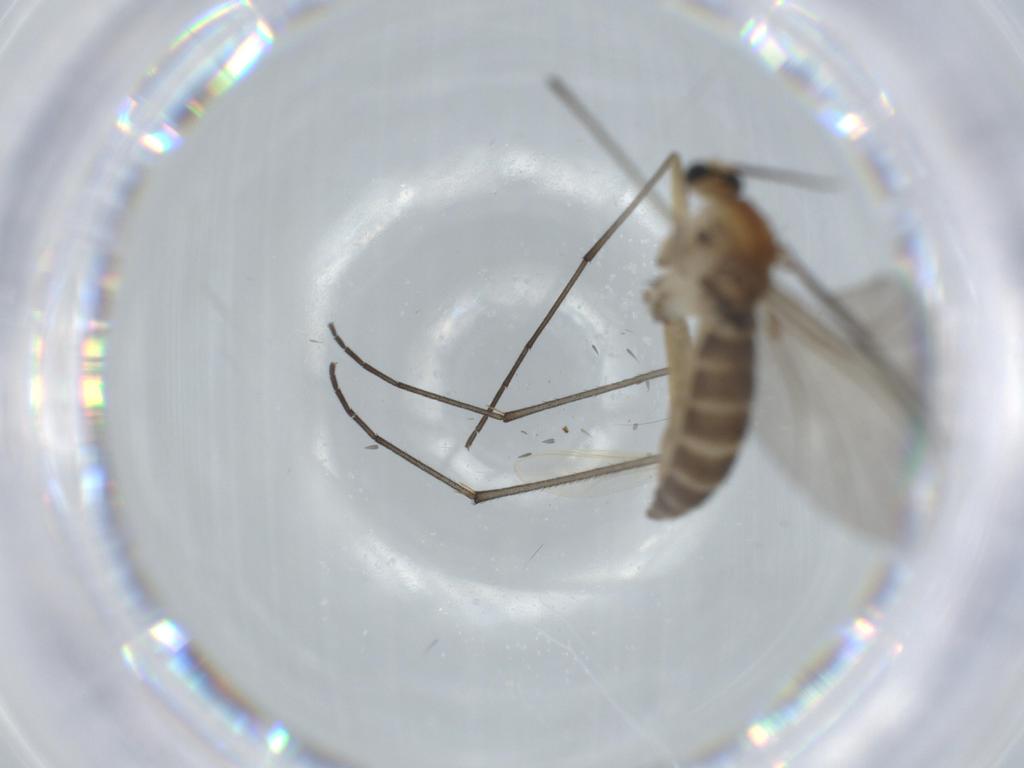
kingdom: Animalia
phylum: Arthropoda
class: Insecta
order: Diptera
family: Sciaridae
